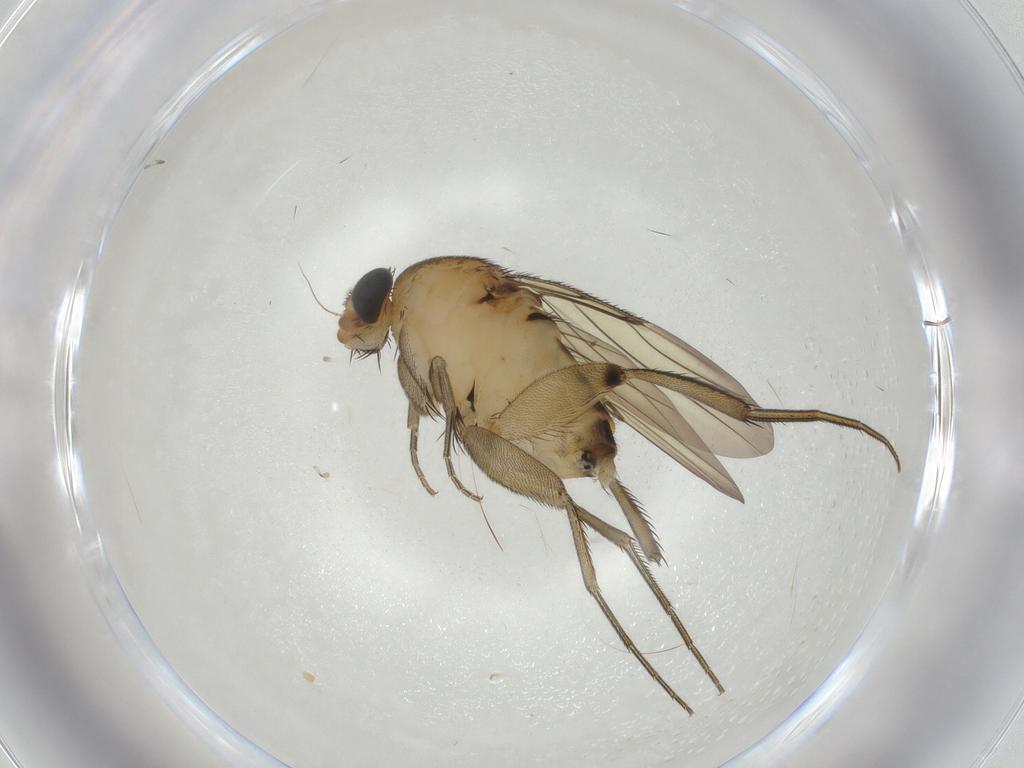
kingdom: Animalia
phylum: Arthropoda
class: Insecta
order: Diptera
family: Phoridae
